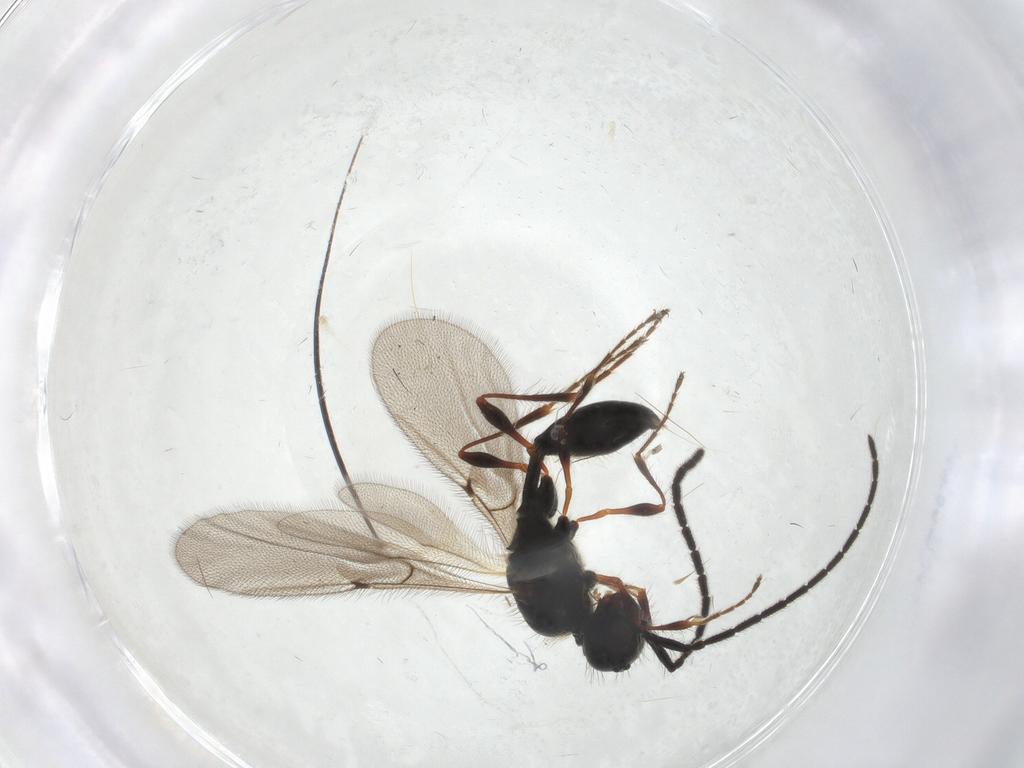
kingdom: Animalia
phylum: Arthropoda
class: Insecta
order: Hymenoptera
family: Diapriidae
